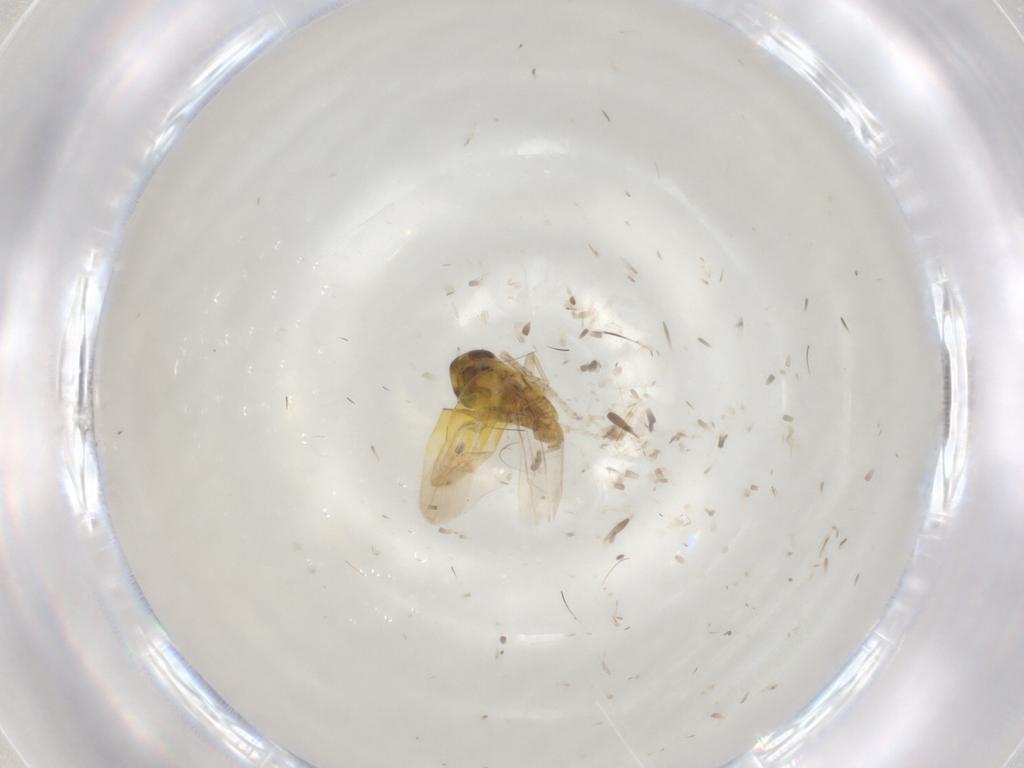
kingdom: Animalia
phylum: Arthropoda
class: Insecta
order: Hemiptera
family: Cicadellidae
